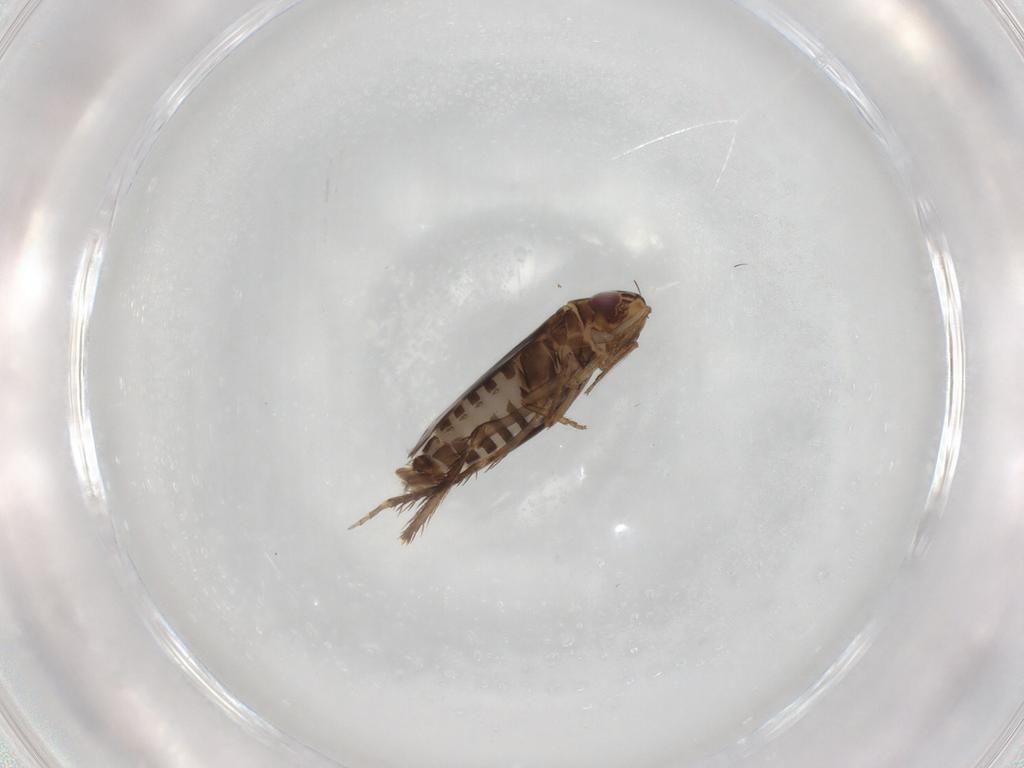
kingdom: Animalia
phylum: Arthropoda
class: Insecta
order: Hemiptera
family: Cicadellidae
